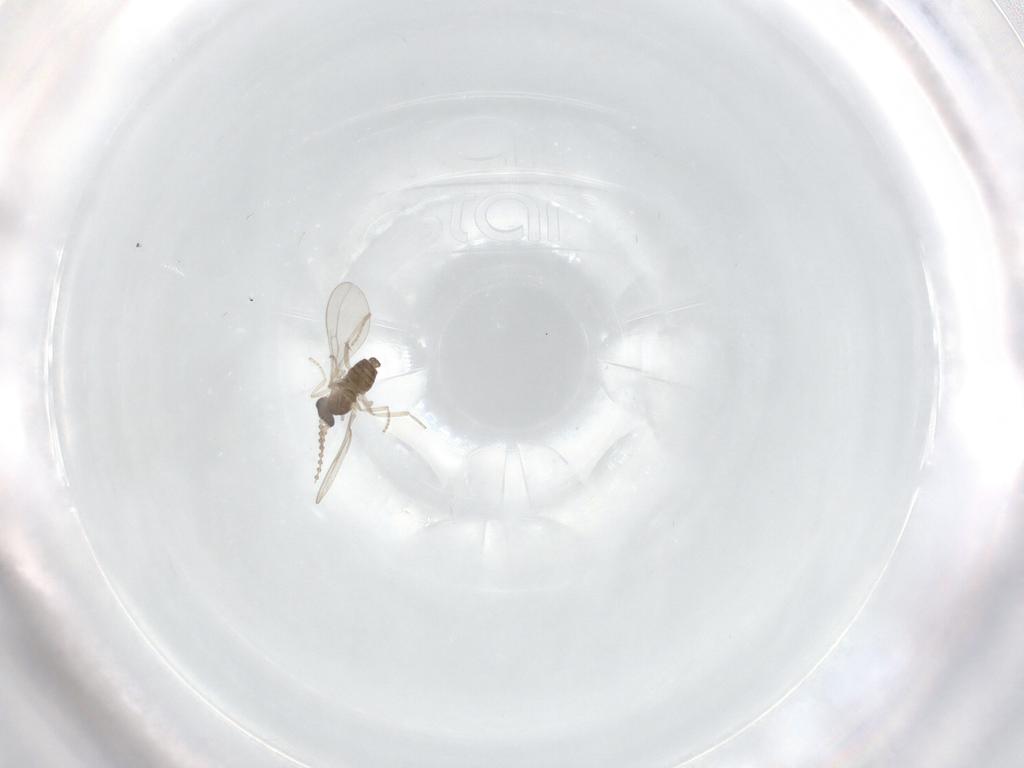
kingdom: Animalia
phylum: Arthropoda
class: Insecta
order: Diptera
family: Cecidomyiidae
